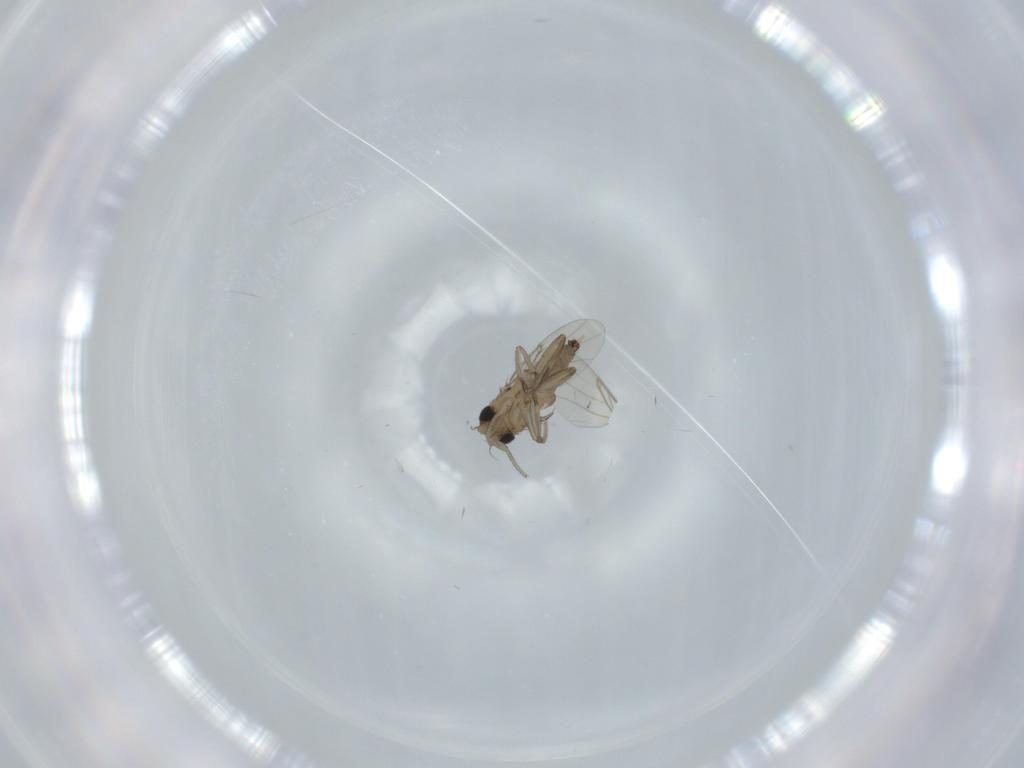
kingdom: Animalia
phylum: Arthropoda
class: Insecta
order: Diptera
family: Phoridae
